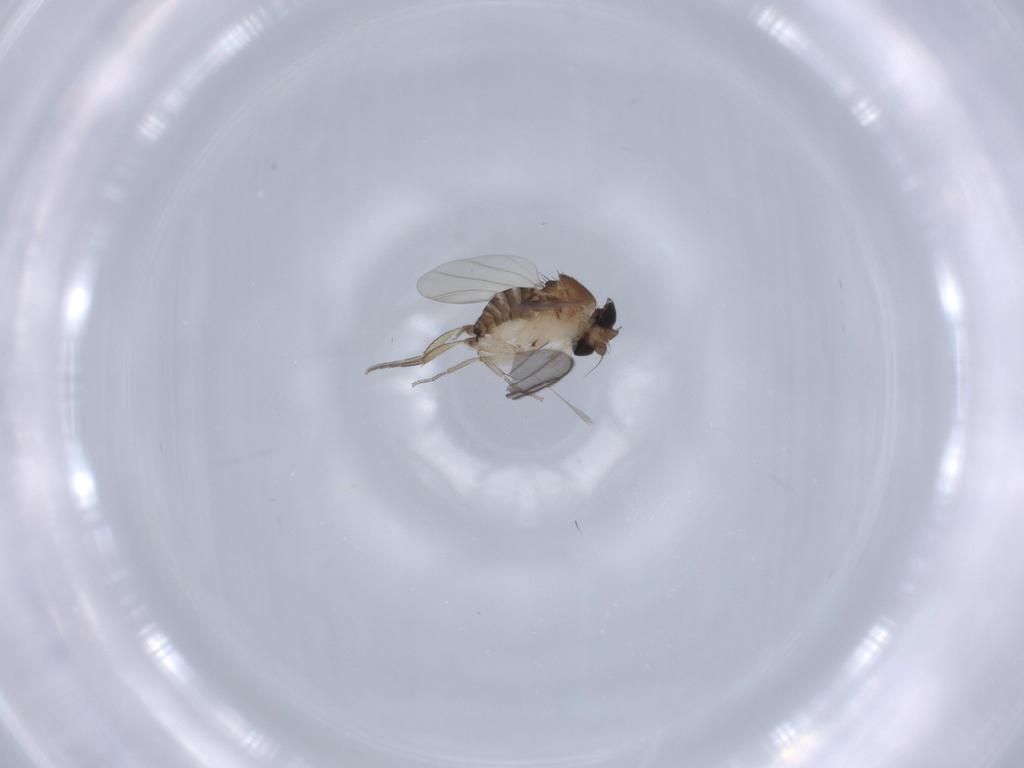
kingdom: Animalia
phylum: Arthropoda
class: Insecta
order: Diptera
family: Phoridae
